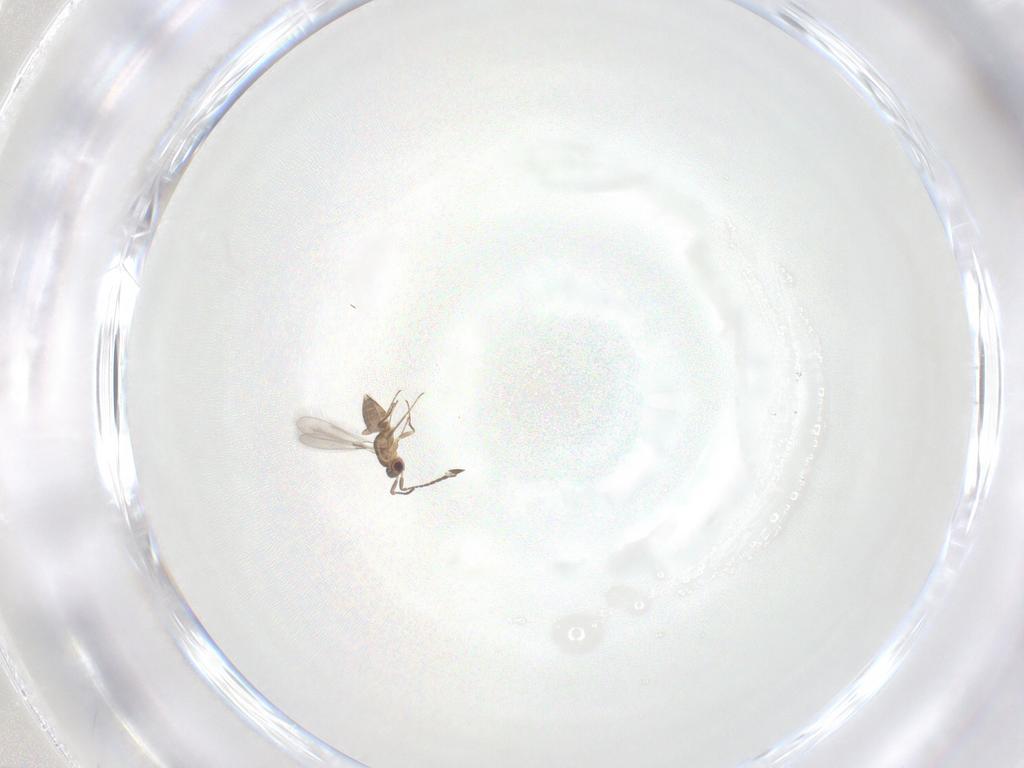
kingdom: Animalia
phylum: Arthropoda
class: Insecta
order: Hymenoptera
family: Mymaridae
